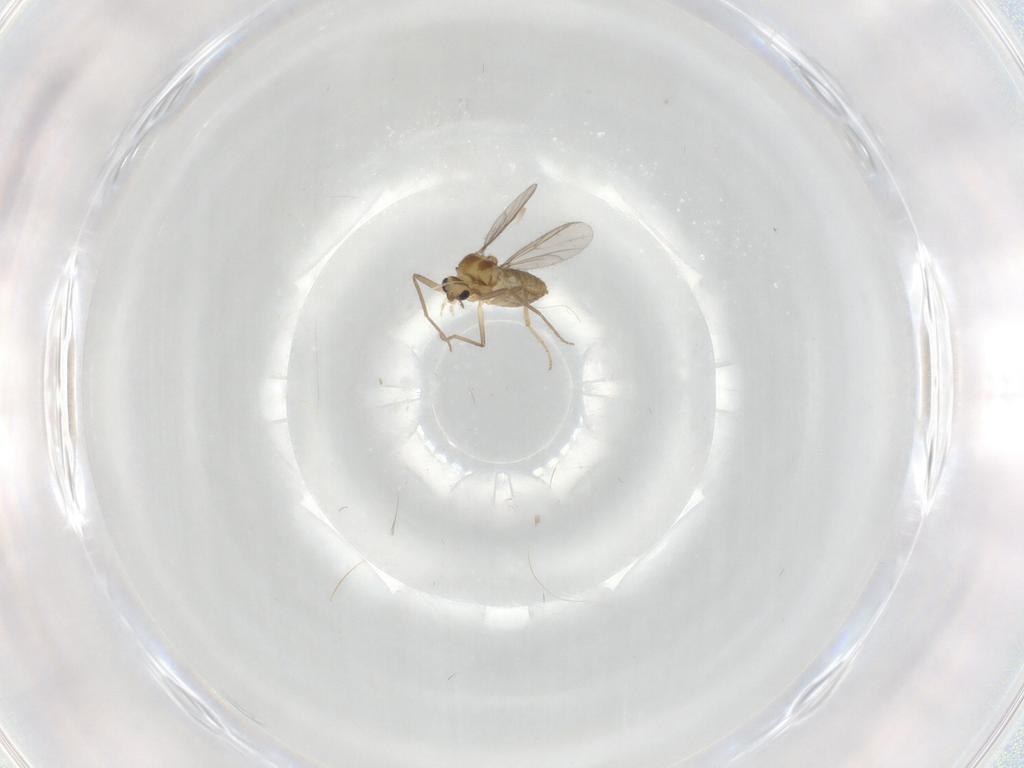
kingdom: Animalia
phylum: Arthropoda
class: Insecta
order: Diptera
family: Chironomidae
